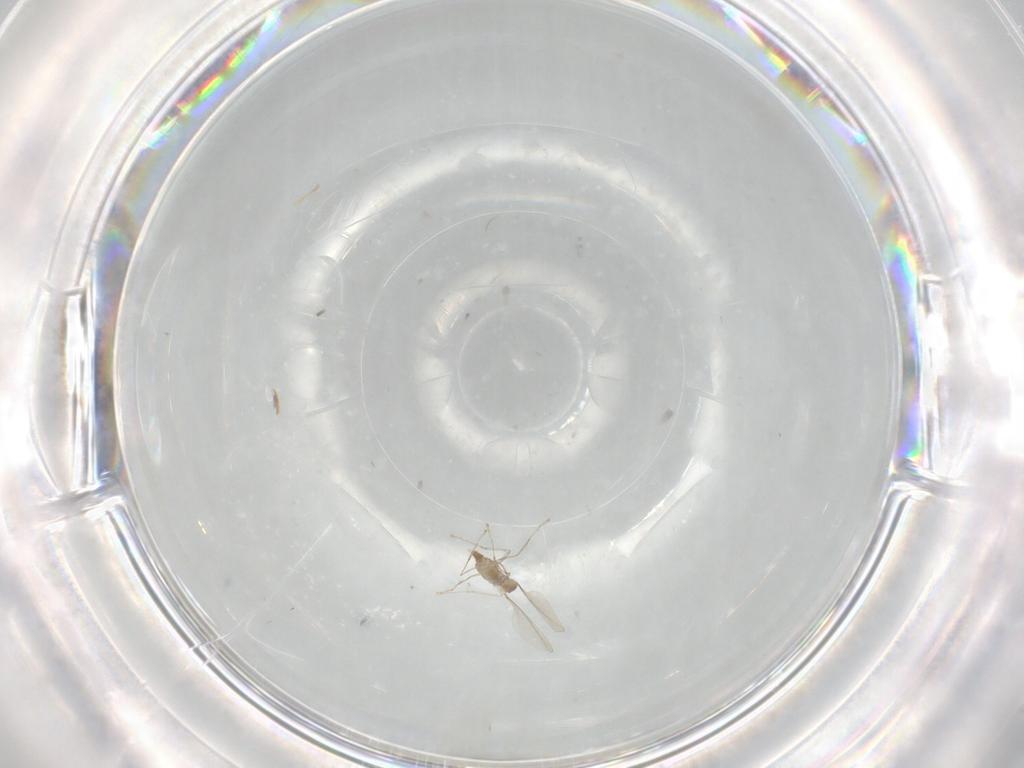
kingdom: Animalia
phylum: Arthropoda
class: Insecta
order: Diptera
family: Cecidomyiidae
